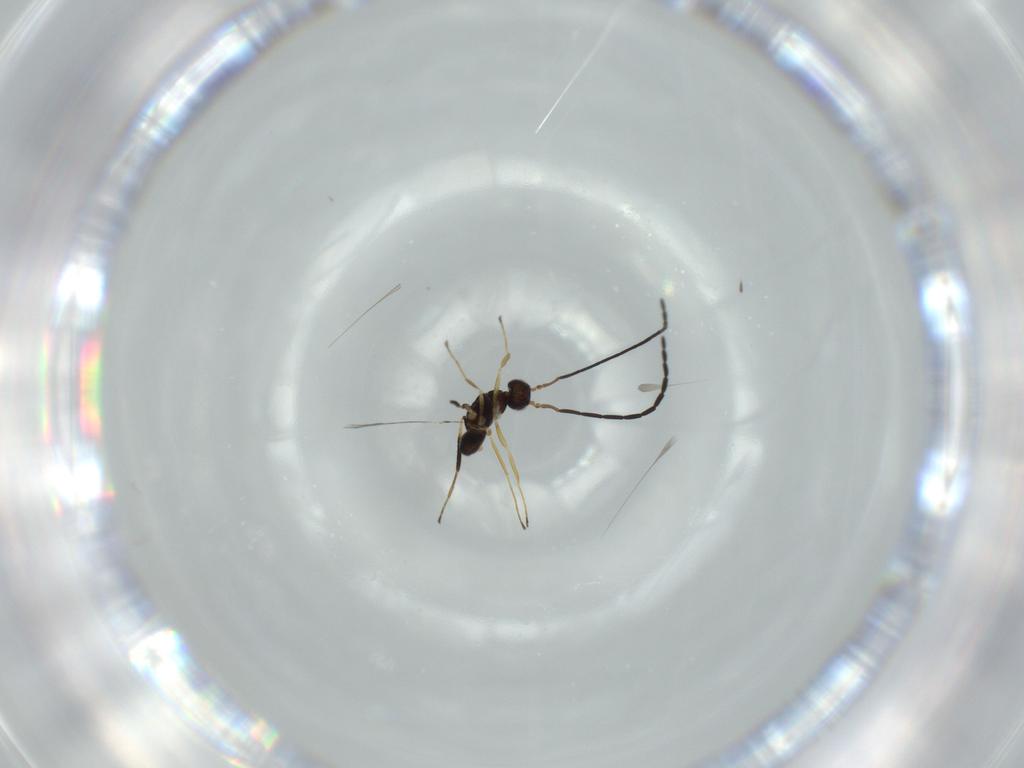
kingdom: Animalia
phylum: Arthropoda
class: Insecta
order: Hymenoptera
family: Mymaridae
